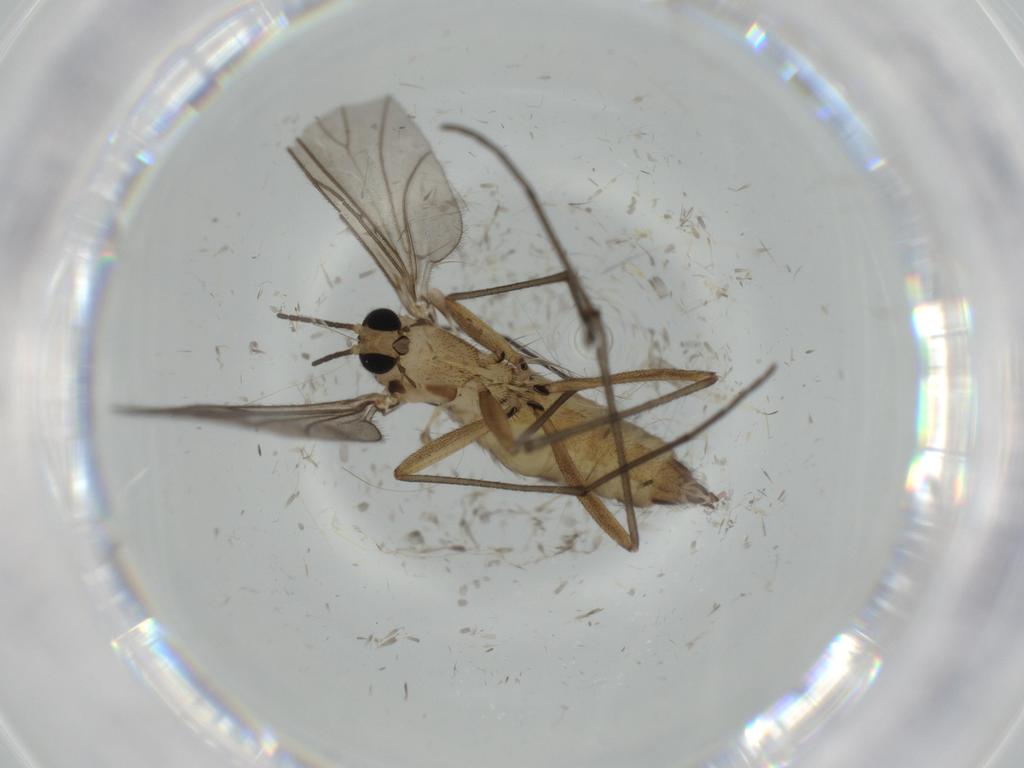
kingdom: Animalia
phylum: Arthropoda
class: Insecta
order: Diptera
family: Sciaridae
